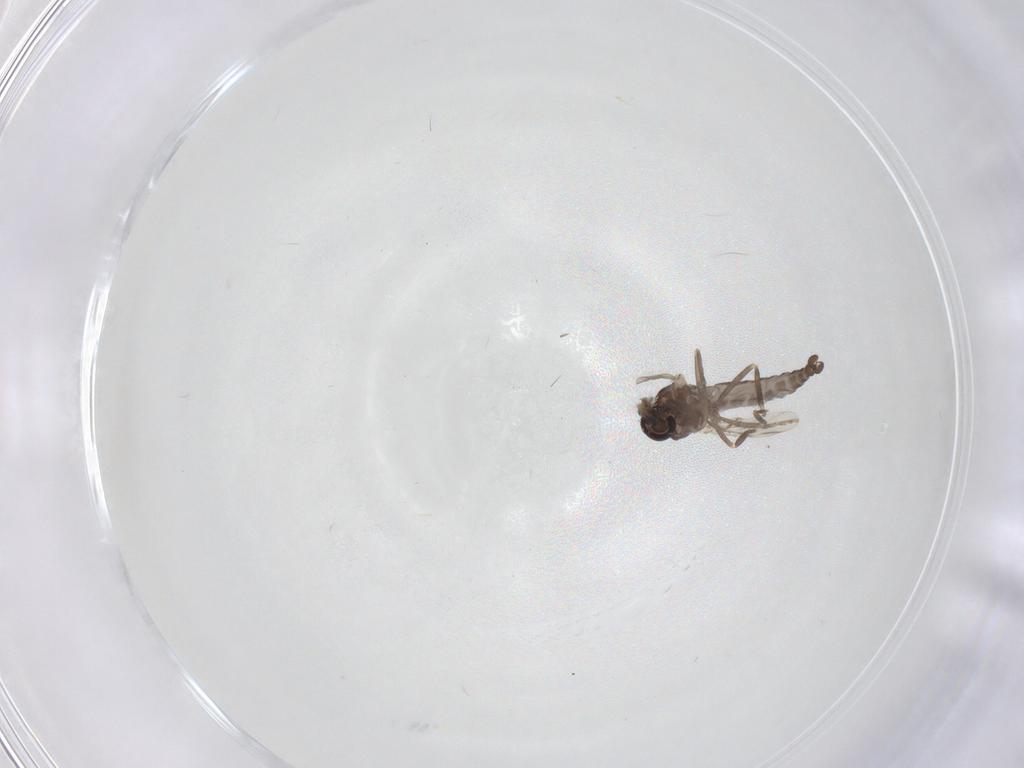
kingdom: Animalia
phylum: Arthropoda
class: Insecta
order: Diptera
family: Ceratopogonidae
